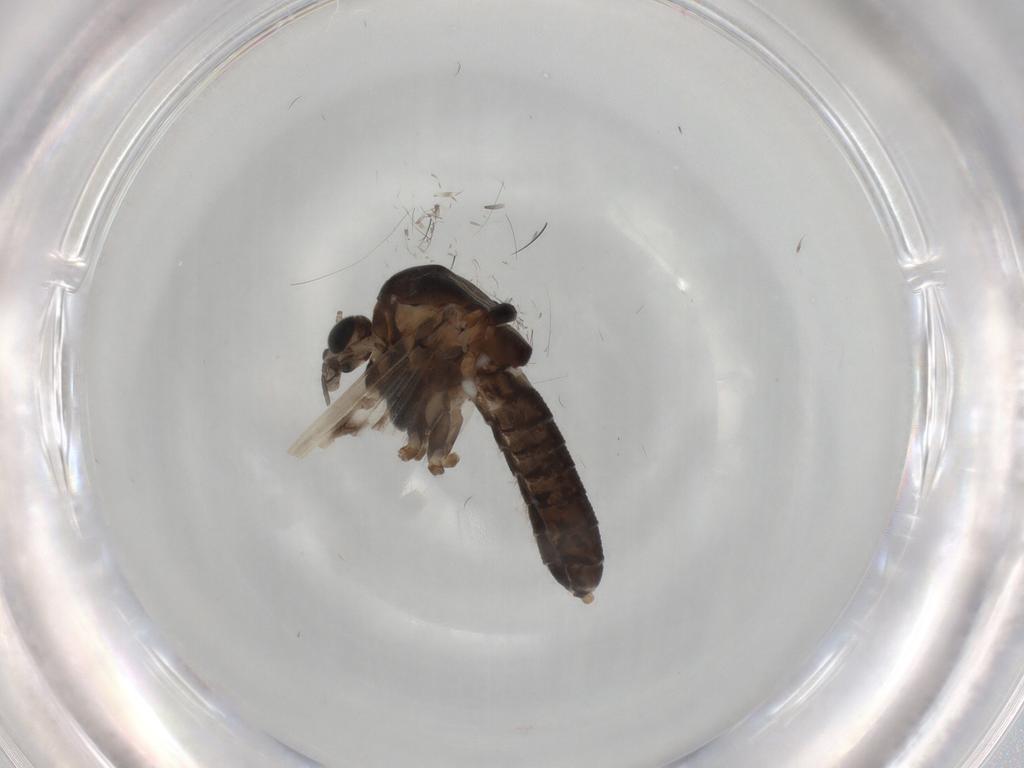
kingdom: Animalia
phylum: Arthropoda
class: Insecta
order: Diptera
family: Chironomidae
